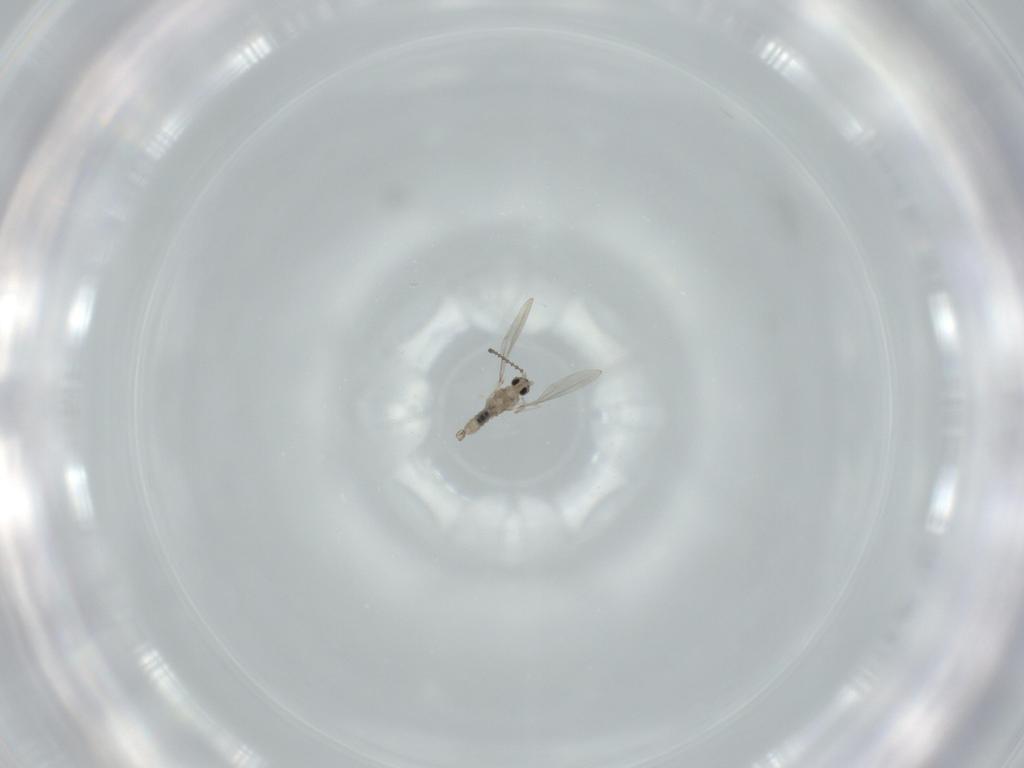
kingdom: Animalia
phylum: Arthropoda
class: Insecta
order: Diptera
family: Cecidomyiidae
